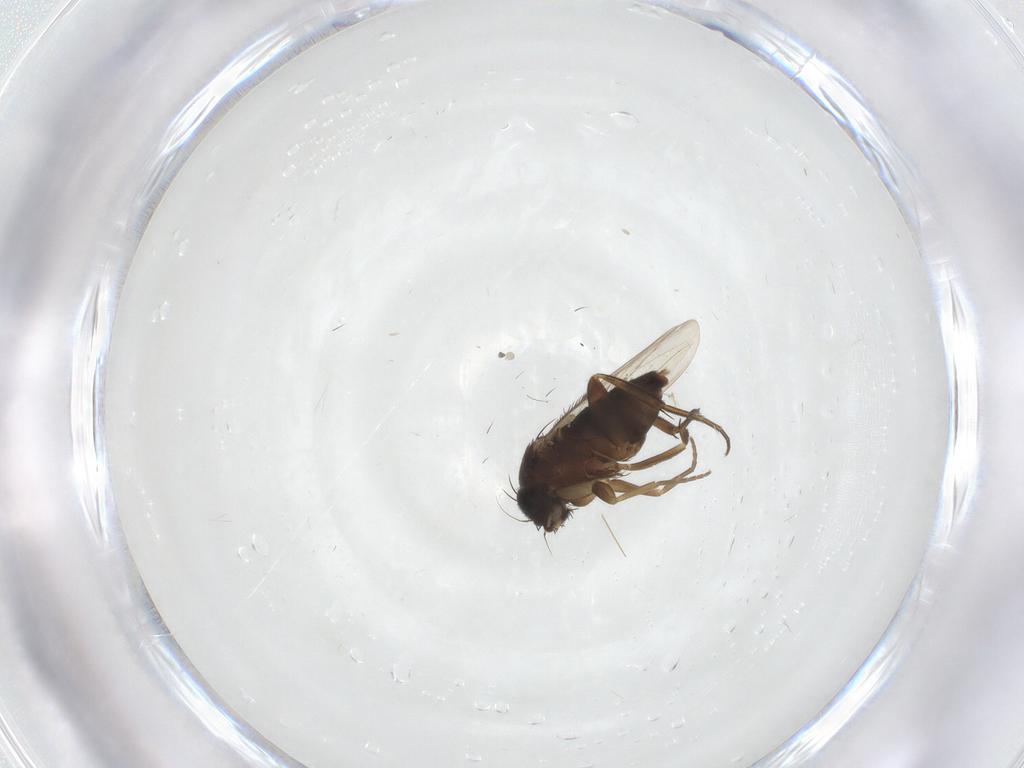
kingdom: Animalia
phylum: Arthropoda
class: Insecta
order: Diptera
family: Phoridae
